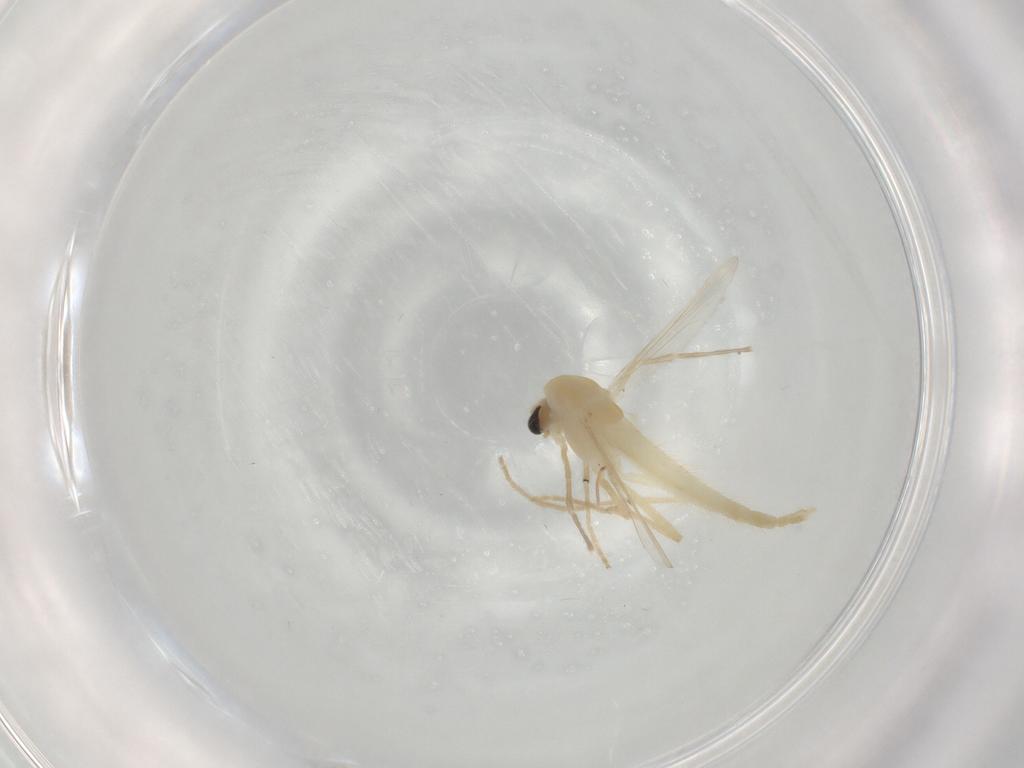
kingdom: Animalia
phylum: Arthropoda
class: Insecta
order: Diptera
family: Chironomidae
